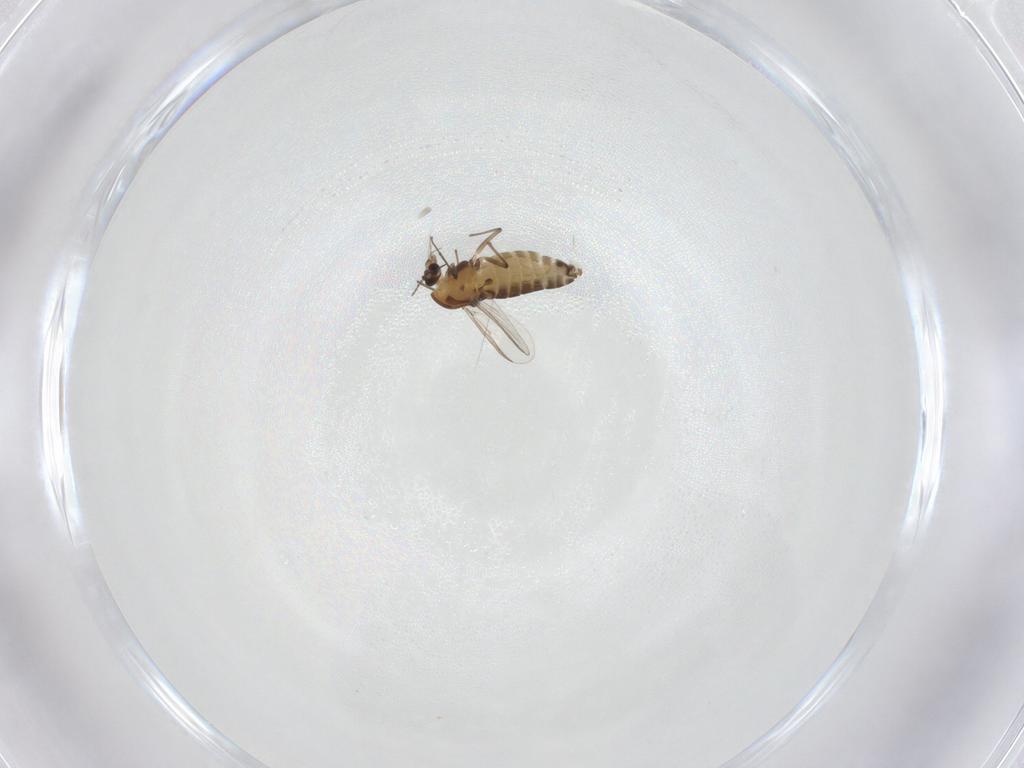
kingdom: Animalia
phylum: Arthropoda
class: Insecta
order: Diptera
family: Chironomidae
